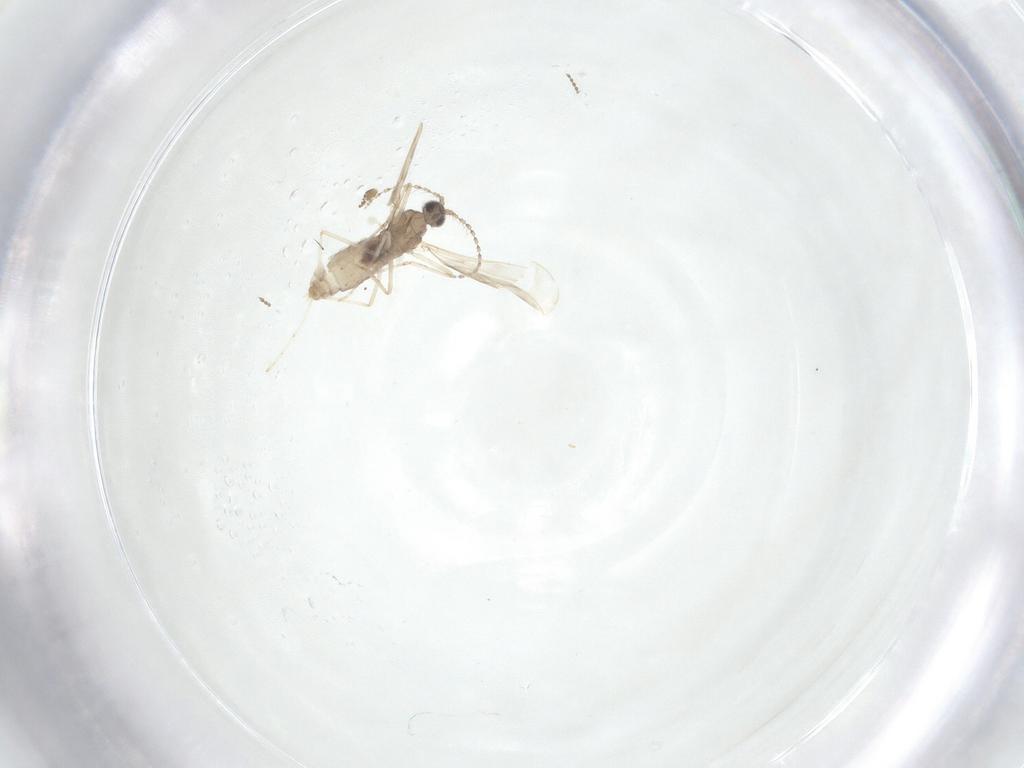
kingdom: Animalia
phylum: Arthropoda
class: Insecta
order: Diptera
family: Cecidomyiidae
